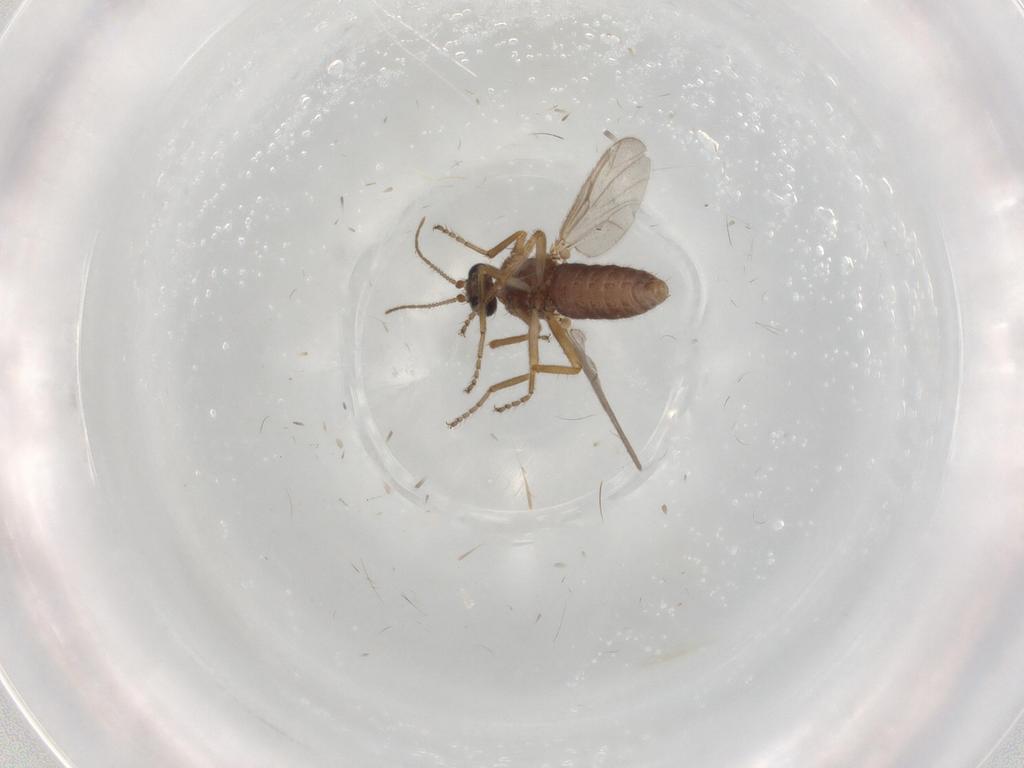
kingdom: Animalia
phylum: Arthropoda
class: Insecta
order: Diptera
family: Ceratopogonidae
